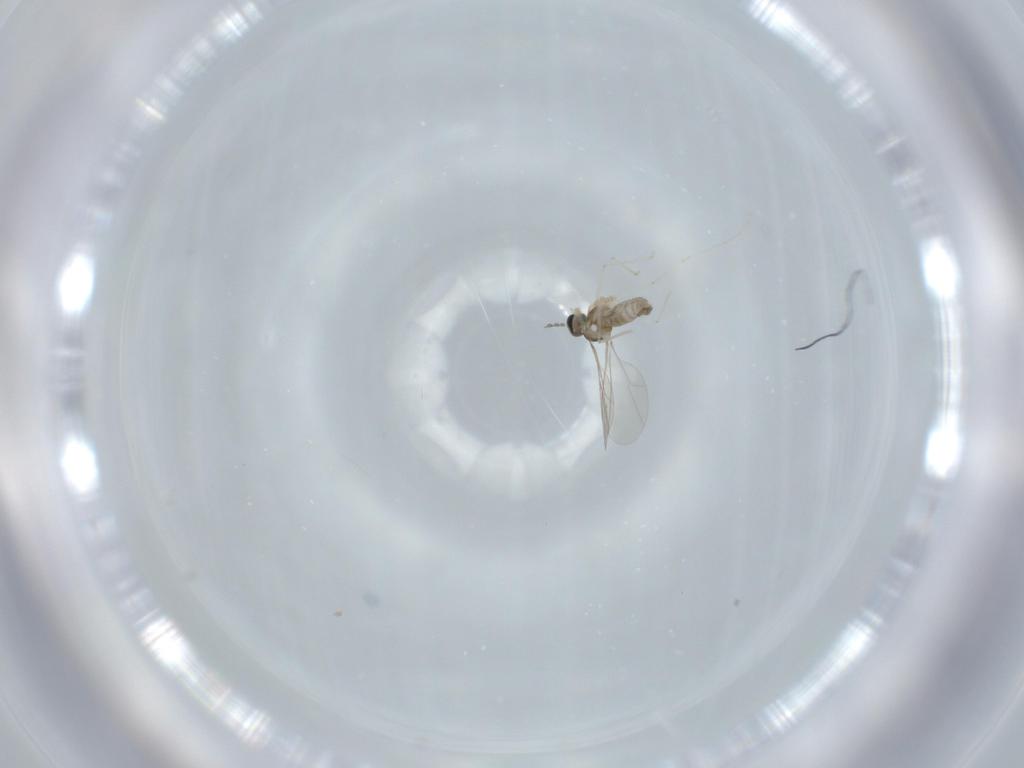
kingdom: Animalia
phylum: Arthropoda
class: Insecta
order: Diptera
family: Cecidomyiidae
